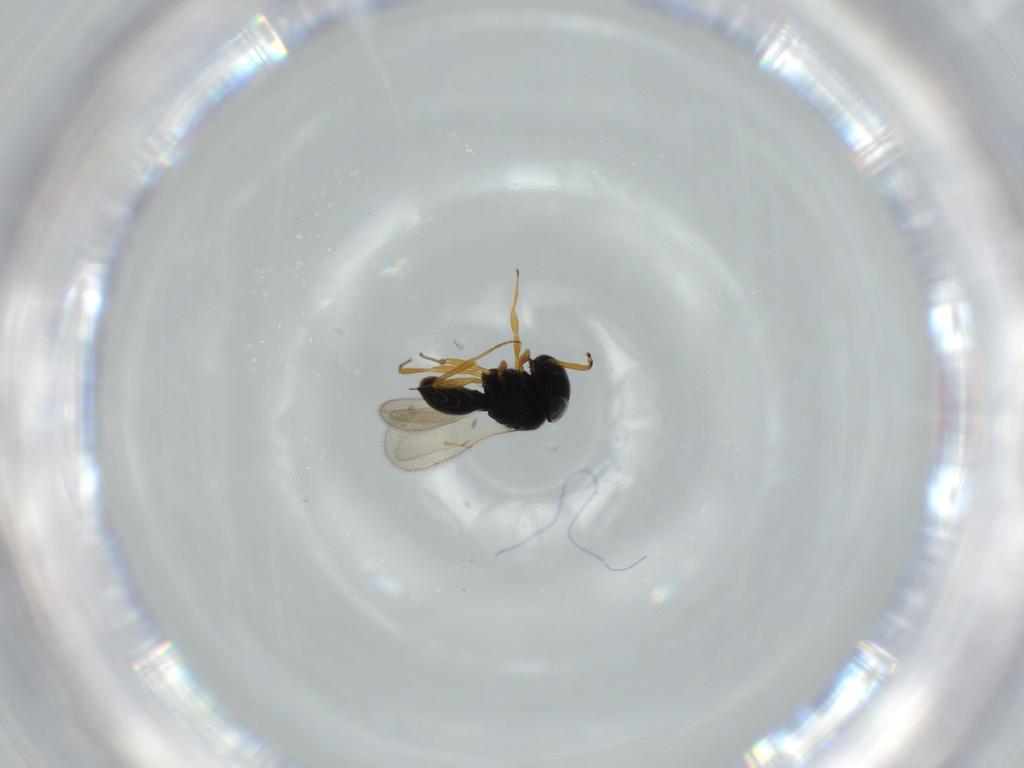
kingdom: Animalia
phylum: Arthropoda
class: Insecta
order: Hymenoptera
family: Scelionidae
